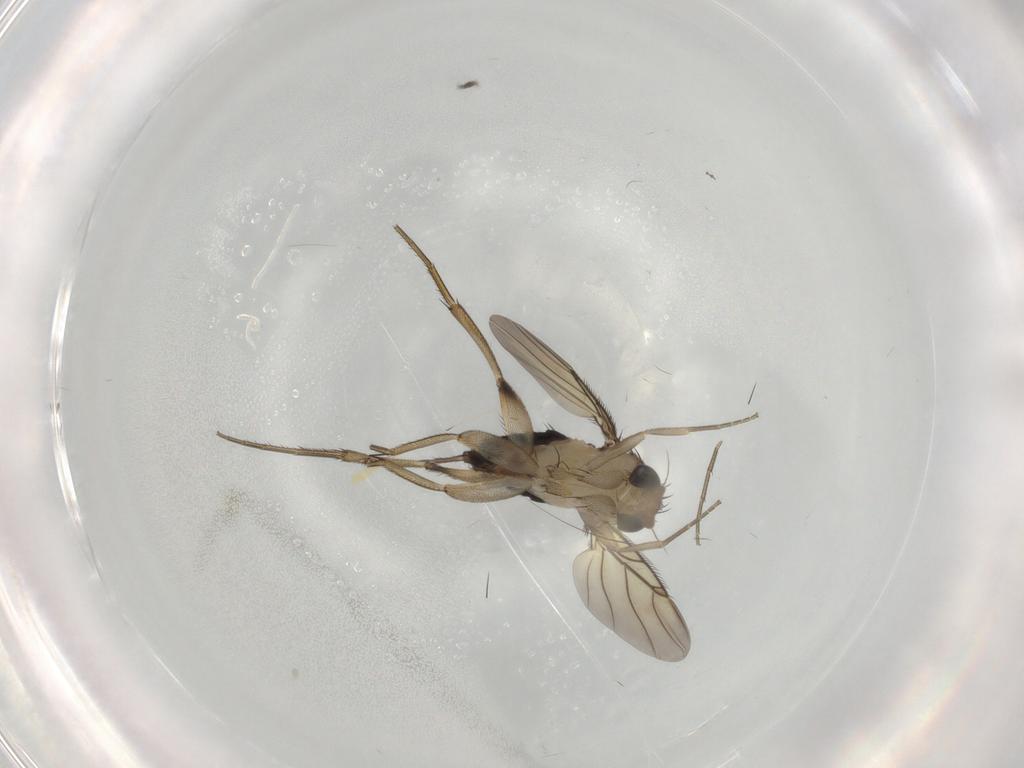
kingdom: Animalia
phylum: Arthropoda
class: Insecta
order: Diptera
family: Phoridae
